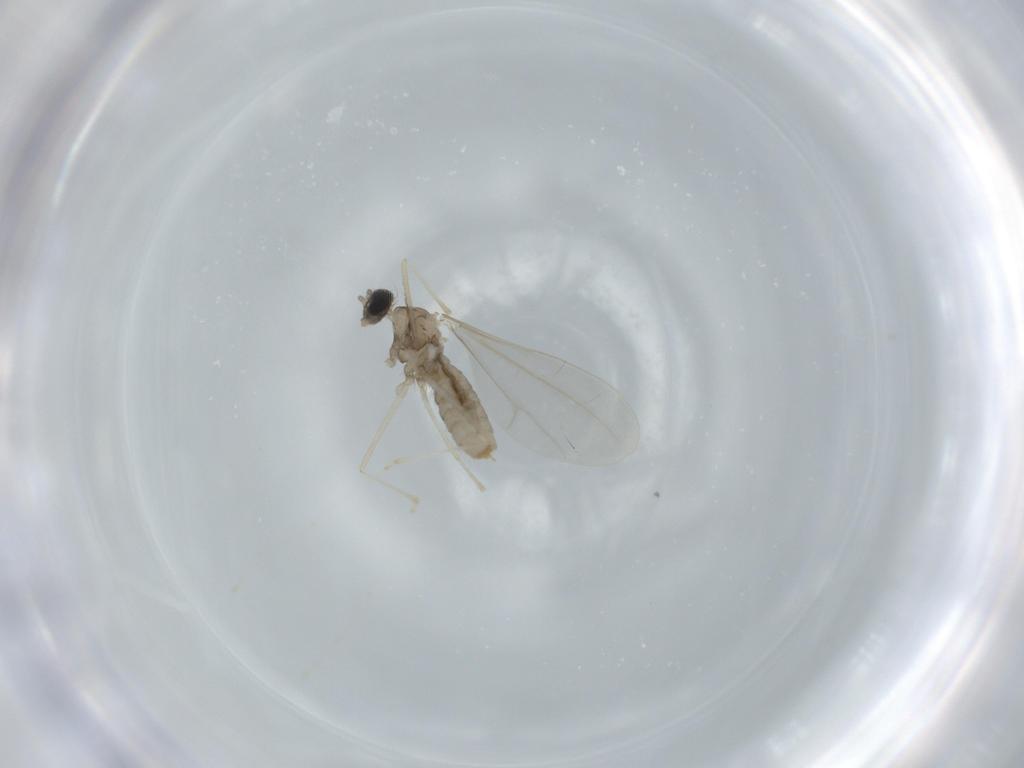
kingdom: Animalia
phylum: Arthropoda
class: Insecta
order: Diptera
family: Cecidomyiidae
